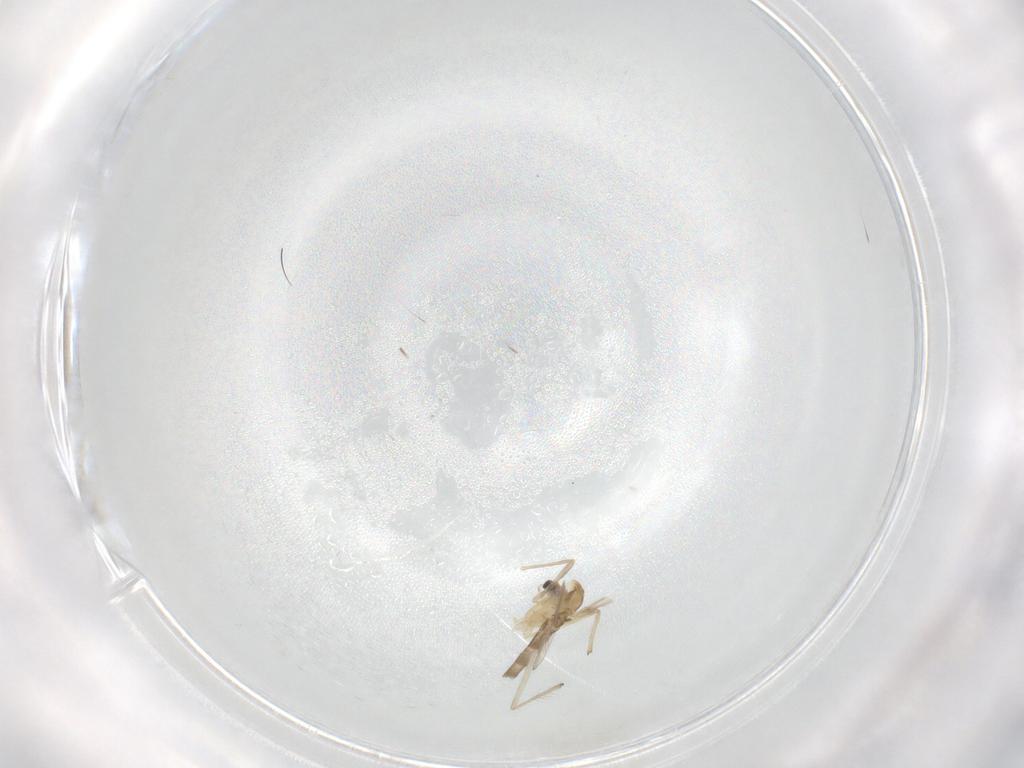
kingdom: Animalia
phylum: Arthropoda
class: Insecta
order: Diptera
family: Chironomidae
